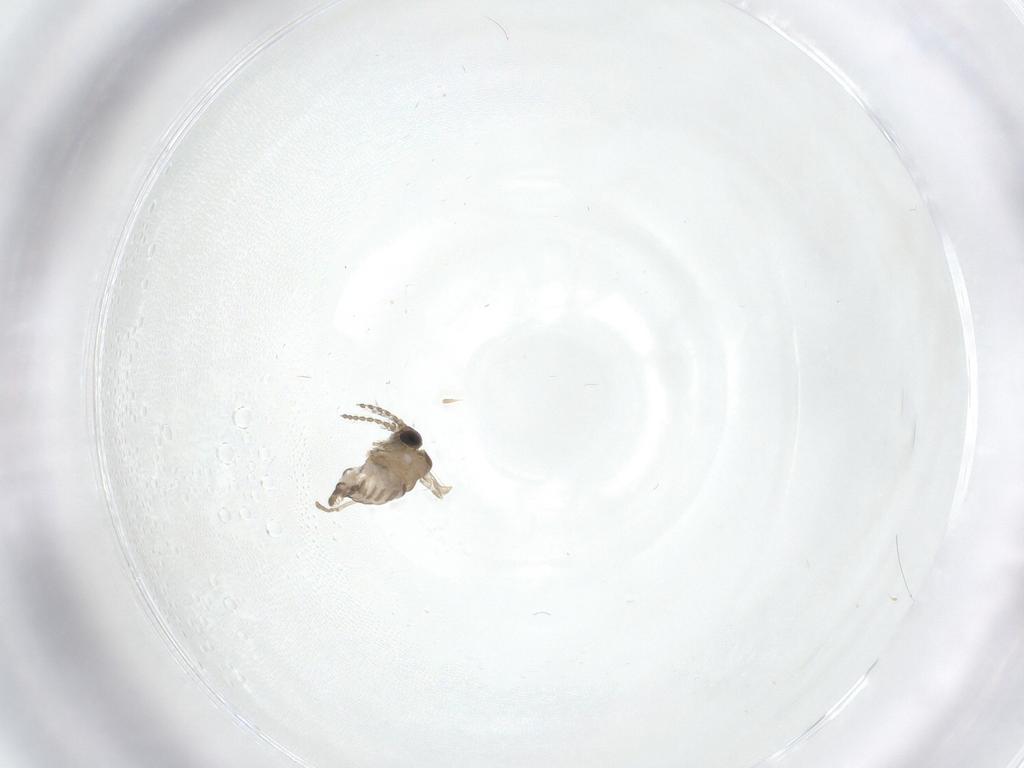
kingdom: Animalia
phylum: Arthropoda
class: Insecta
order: Diptera
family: Psychodidae
